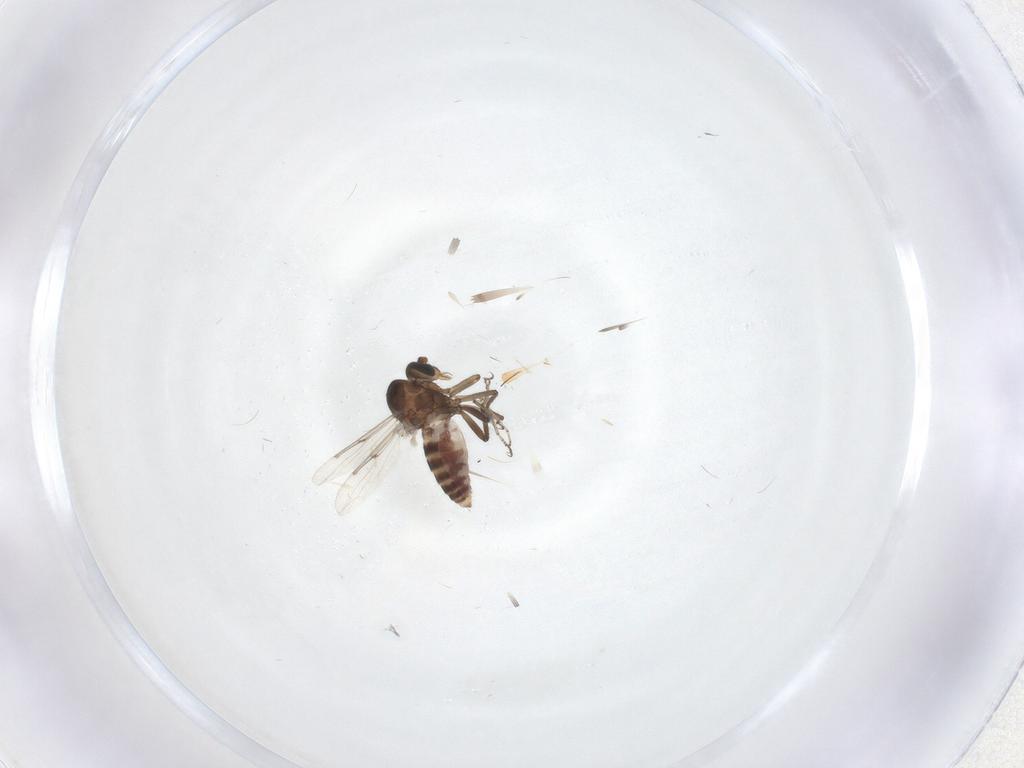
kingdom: Animalia
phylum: Arthropoda
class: Insecta
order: Diptera
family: Ceratopogonidae
